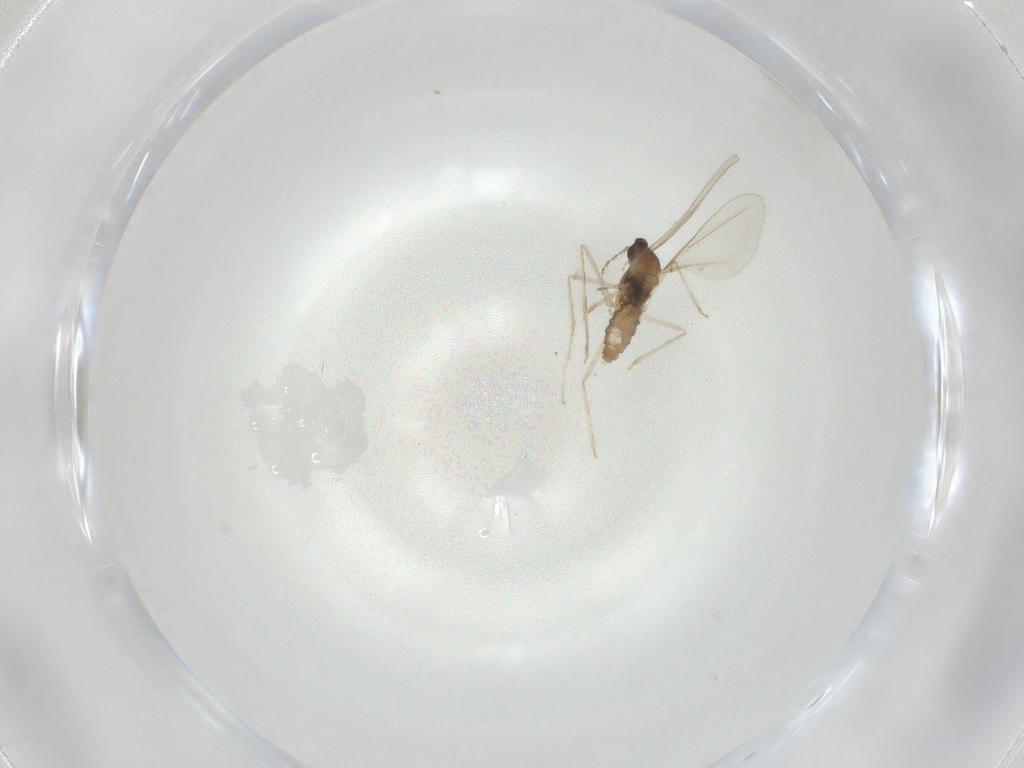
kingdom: Animalia
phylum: Arthropoda
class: Insecta
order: Diptera
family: Cecidomyiidae
